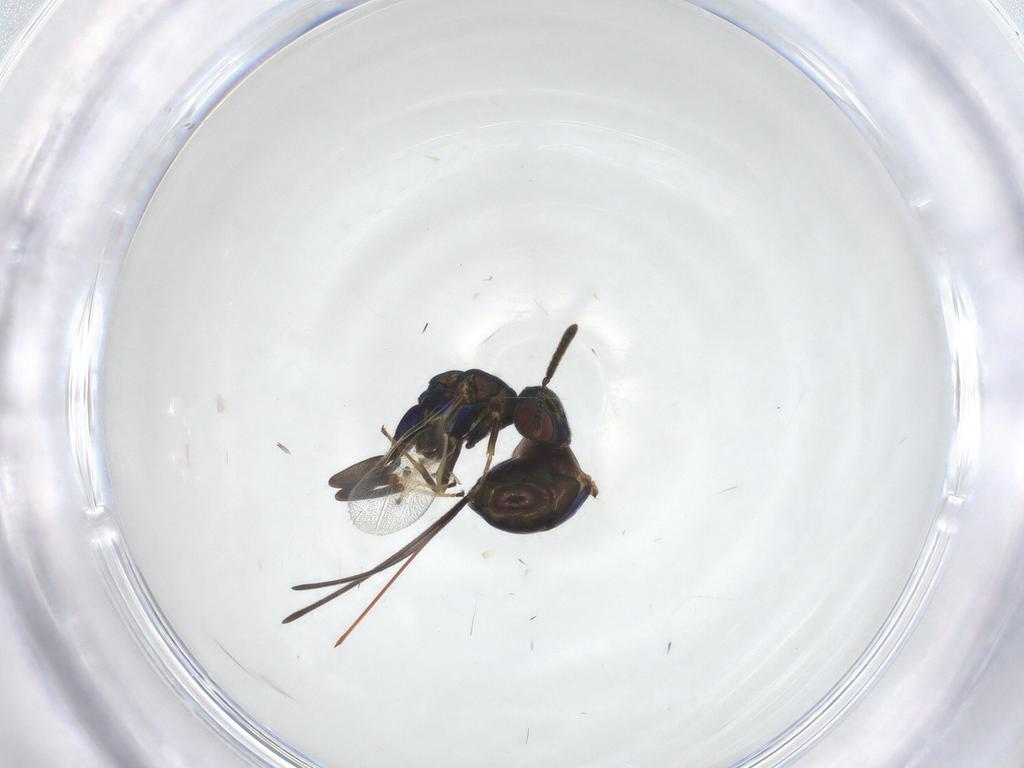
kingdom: Animalia
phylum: Arthropoda
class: Insecta
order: Hymenoptera
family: Torymidae
